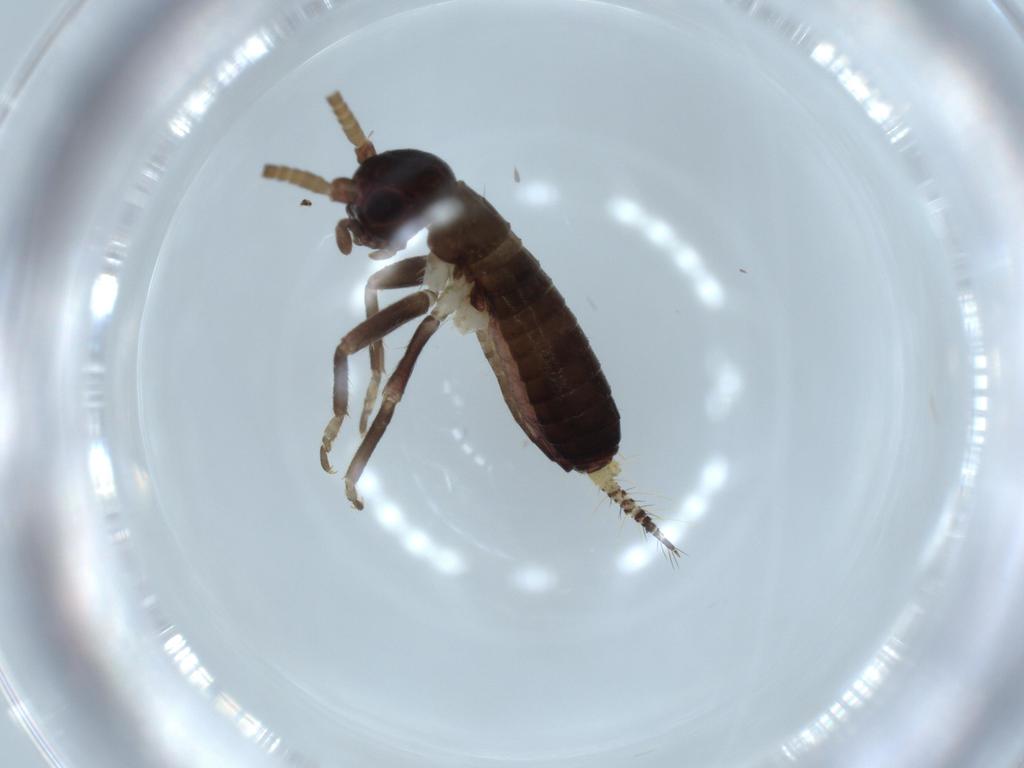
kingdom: Animalia
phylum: Arthropoda
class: Insecta
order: Orthoptera
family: Gryllidae
